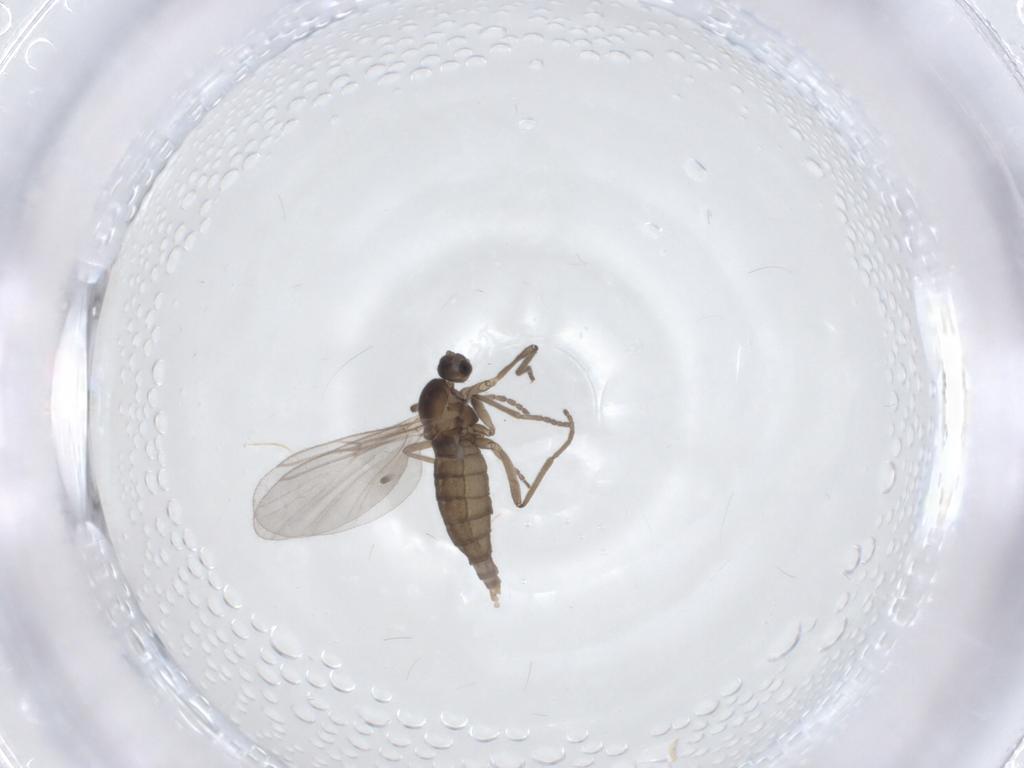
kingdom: Animalia
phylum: Arthropoda
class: Insecta
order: Diptera
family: Cecidomyiidae
